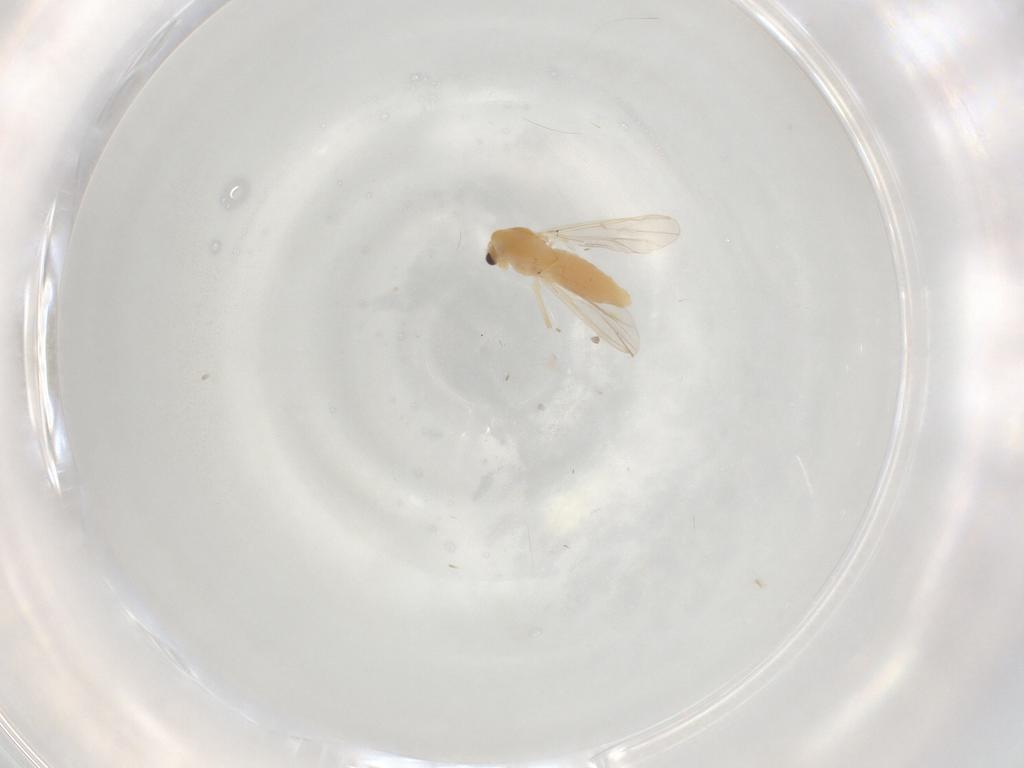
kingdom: Animalia
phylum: Arthropoda
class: Insecta
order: Diptera
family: Chironomidae
